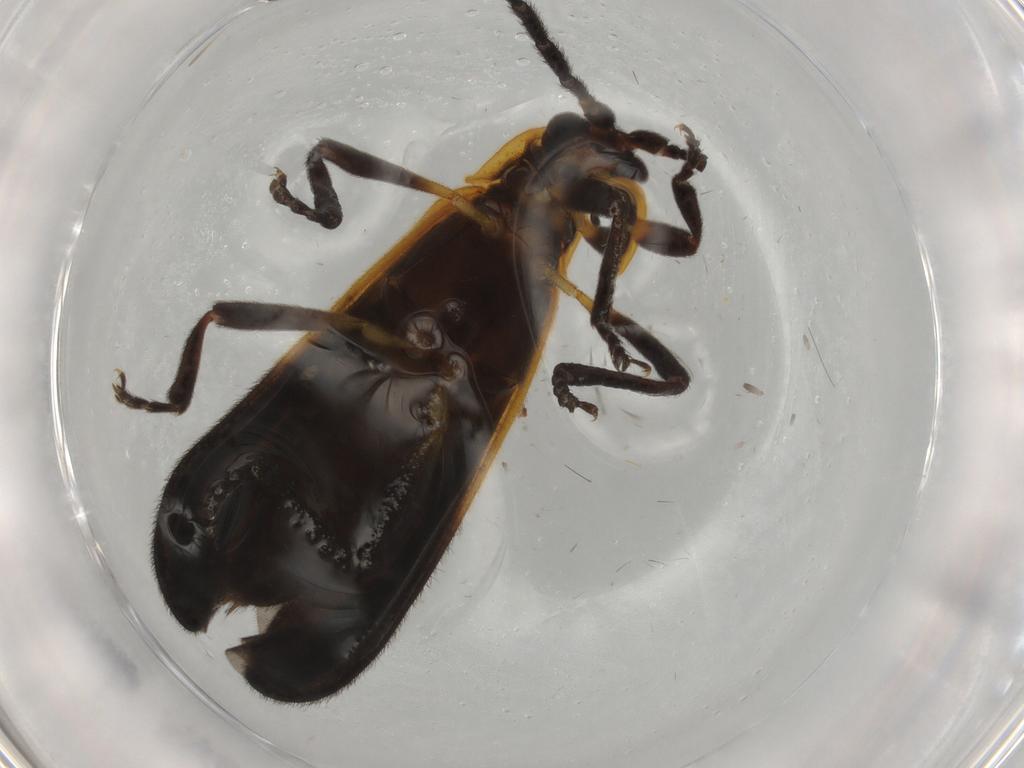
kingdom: Animalia
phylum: Arthropoda
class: Insecta
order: Coleoptera
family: Lycidae
